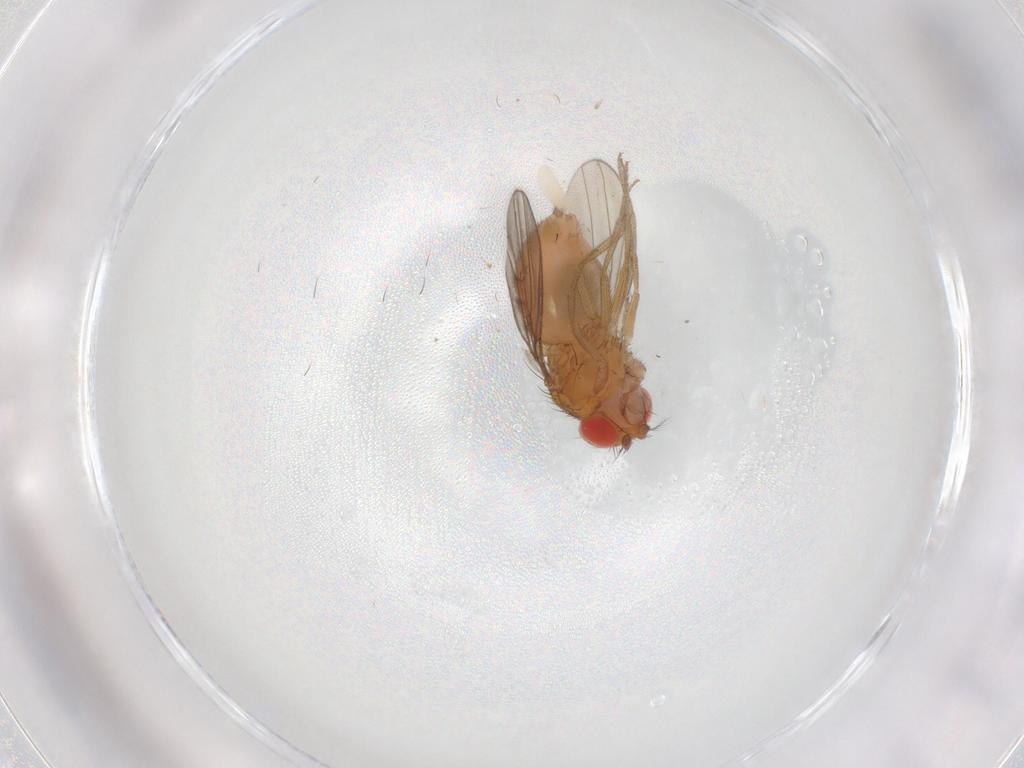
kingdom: Animalia
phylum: Arthropoda
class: Insecta
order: Diptera
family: Drosophilidae
